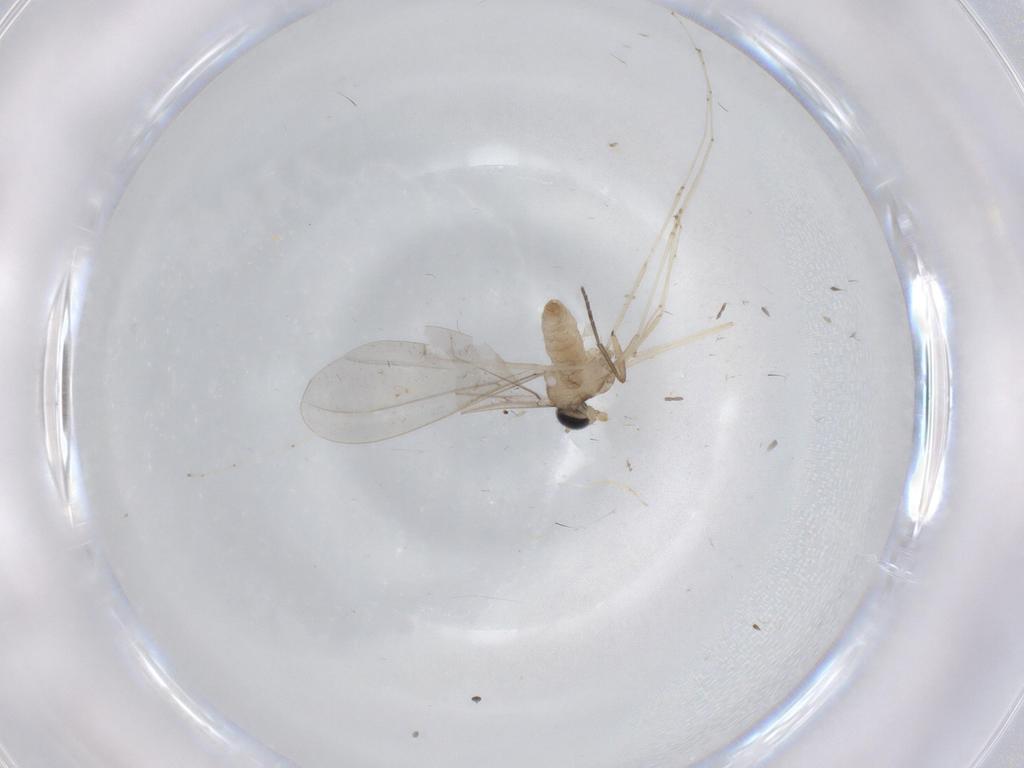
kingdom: Animalia
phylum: Arthropoda
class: Insecta
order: Diptera
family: Cecidomyiidae
